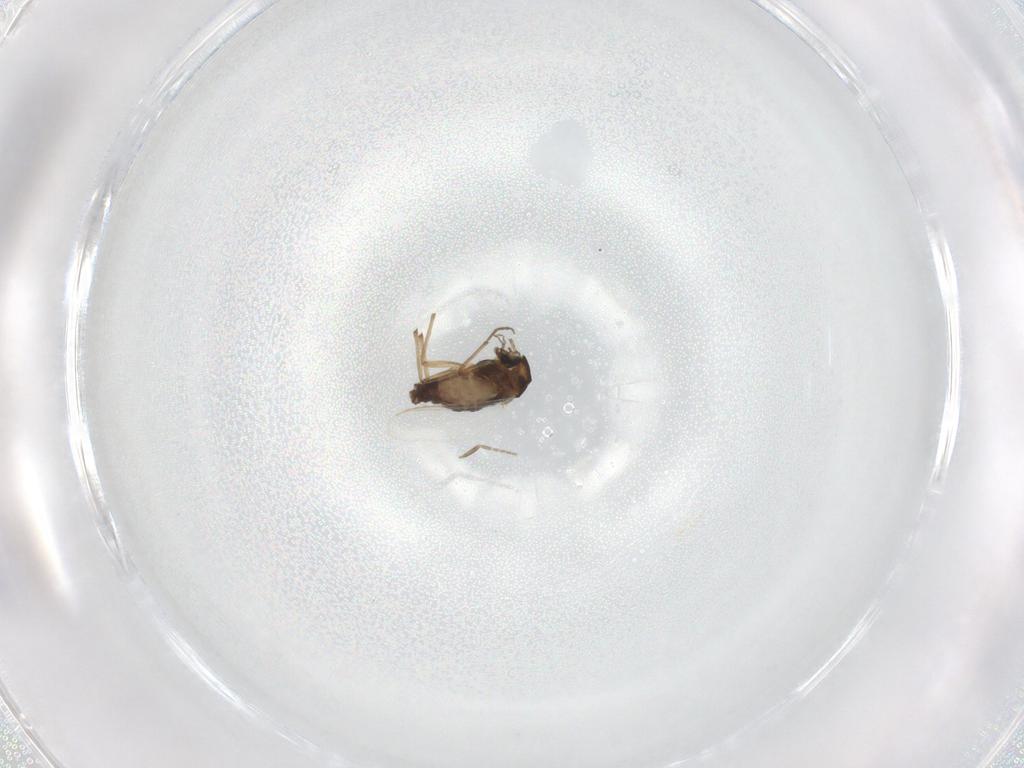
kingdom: Animalia
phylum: Arthropoda
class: Insecta
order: Diptera
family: Chironomidae
